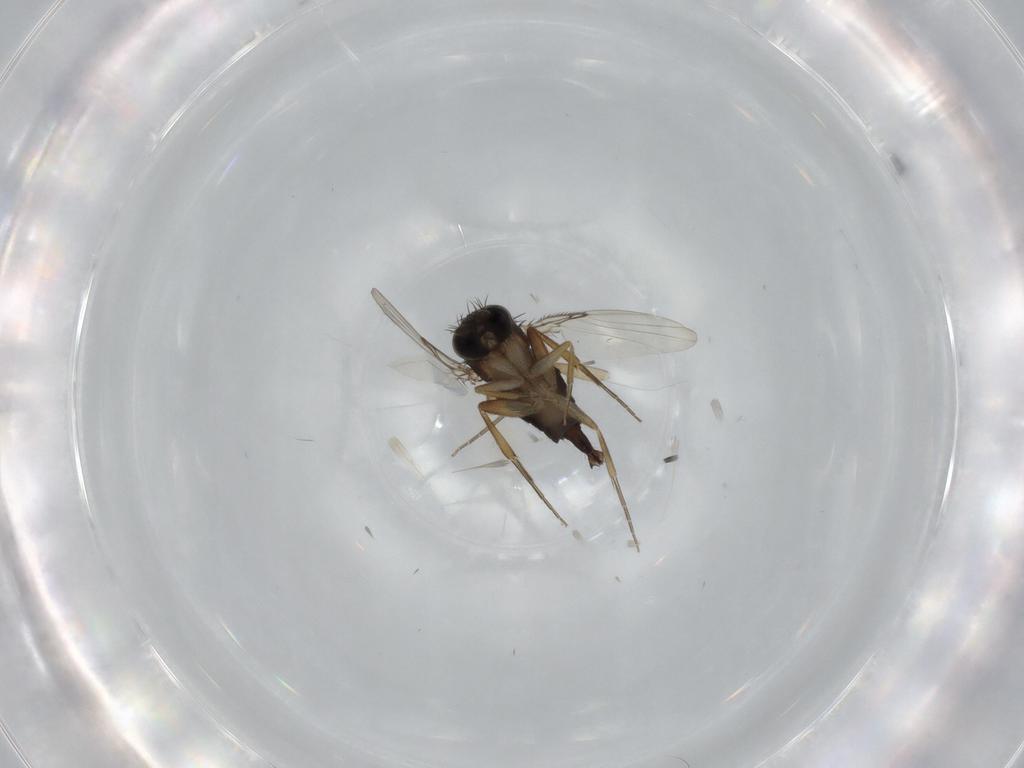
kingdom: Animalia
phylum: Arthropoda
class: Insecta
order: Diptera
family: Phoridae
